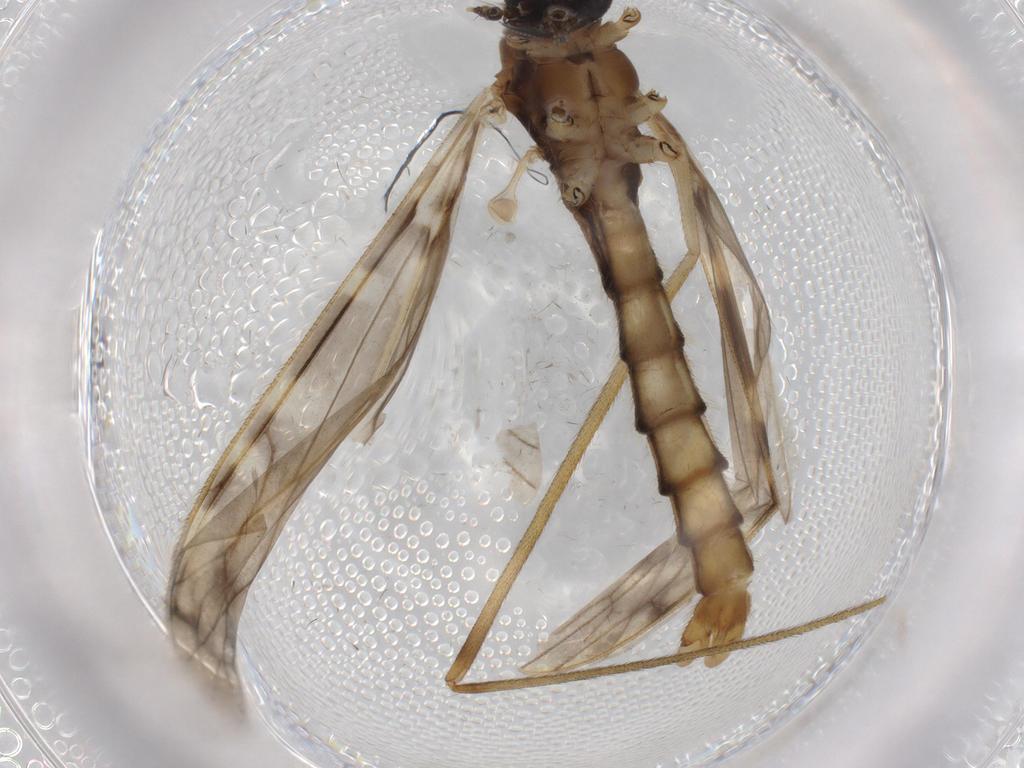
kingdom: Animalia
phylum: Arthropoda
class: Insecta
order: Diptera
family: Sciaridae
